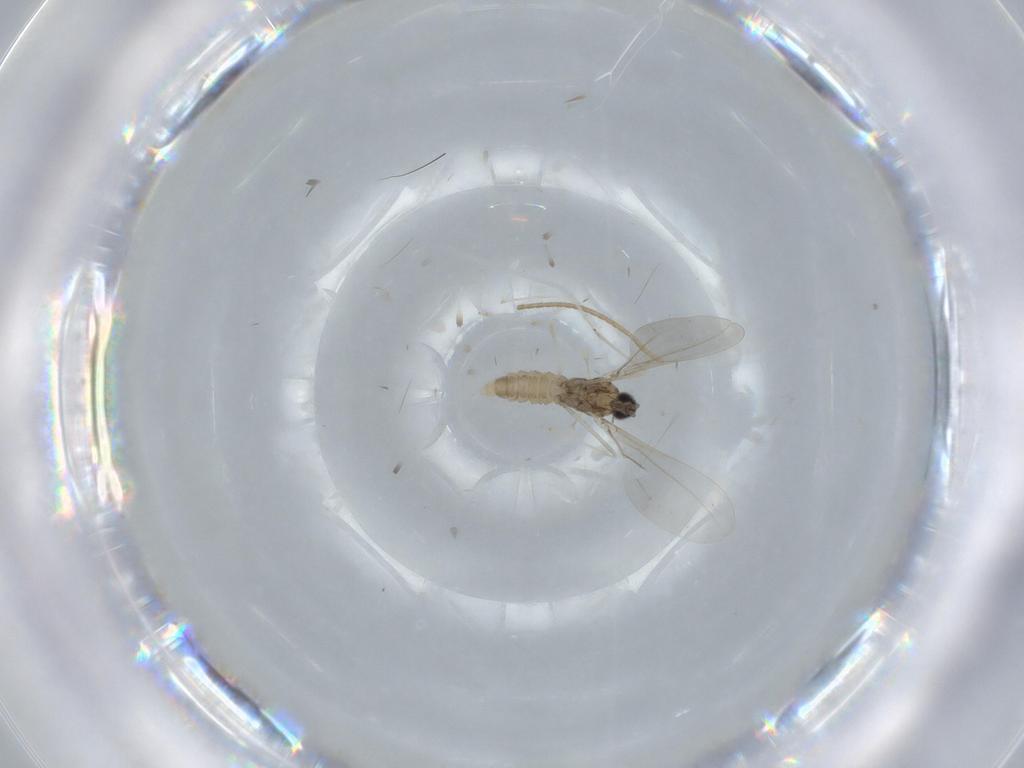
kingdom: Animalia
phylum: Arthropoda
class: Insecta
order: Diptera
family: Cecidomyiidae
